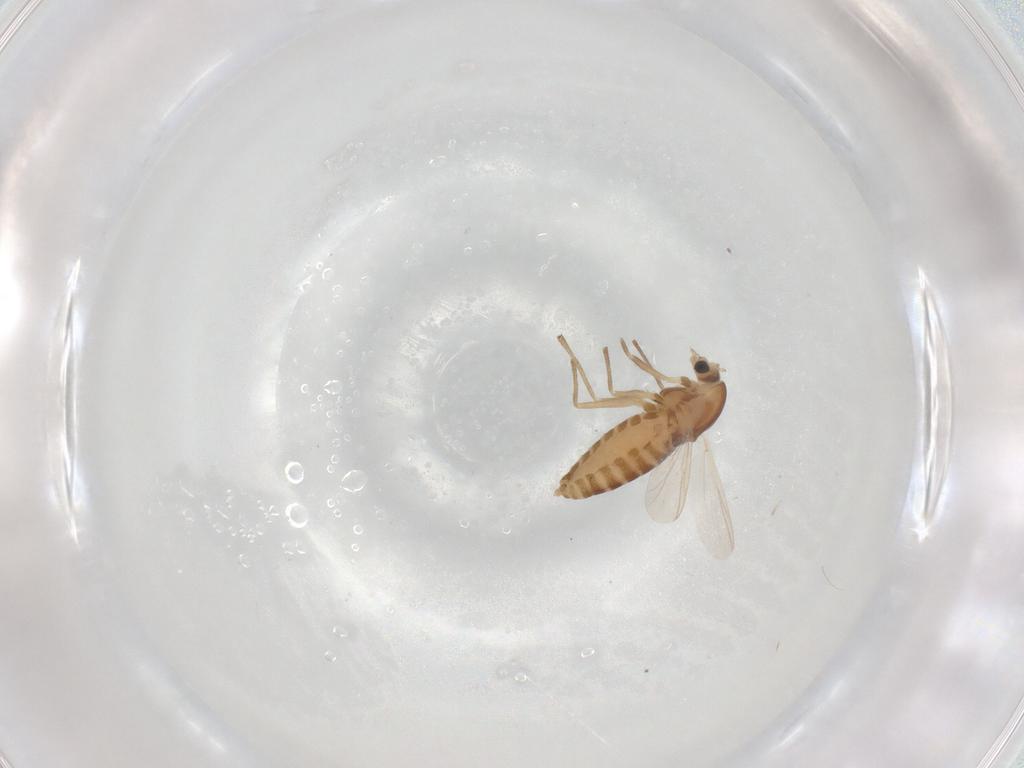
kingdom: Animalia
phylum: Arthropoda
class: Insecta
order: Diptera
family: Chironomidae
